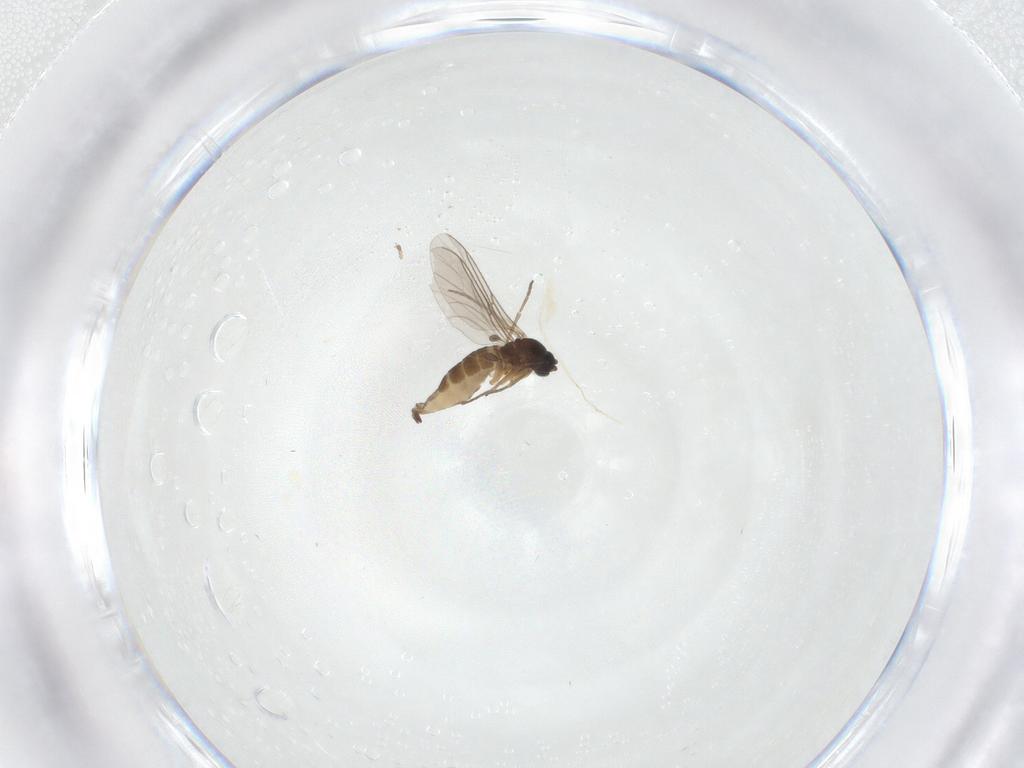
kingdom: Animalia
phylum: Arthropoda
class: Insecta
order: Diptera
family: Sciaridae
